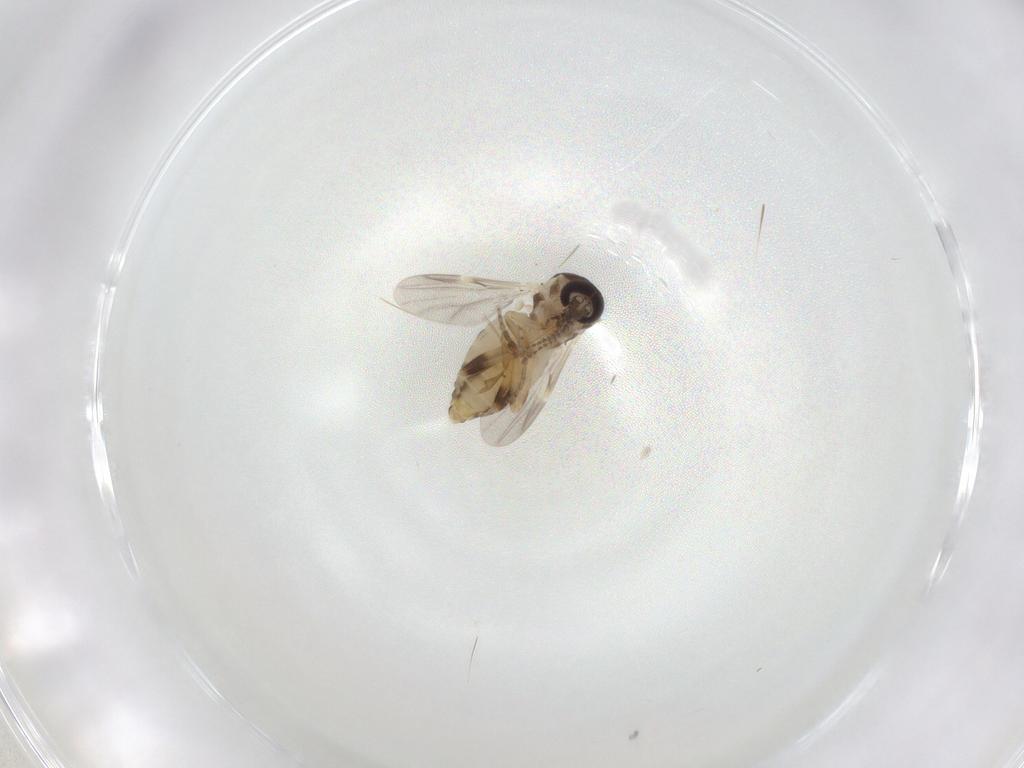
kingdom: Animalia
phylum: Arthropoda
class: Insecta
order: Diptera
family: Ceratopogonidae
